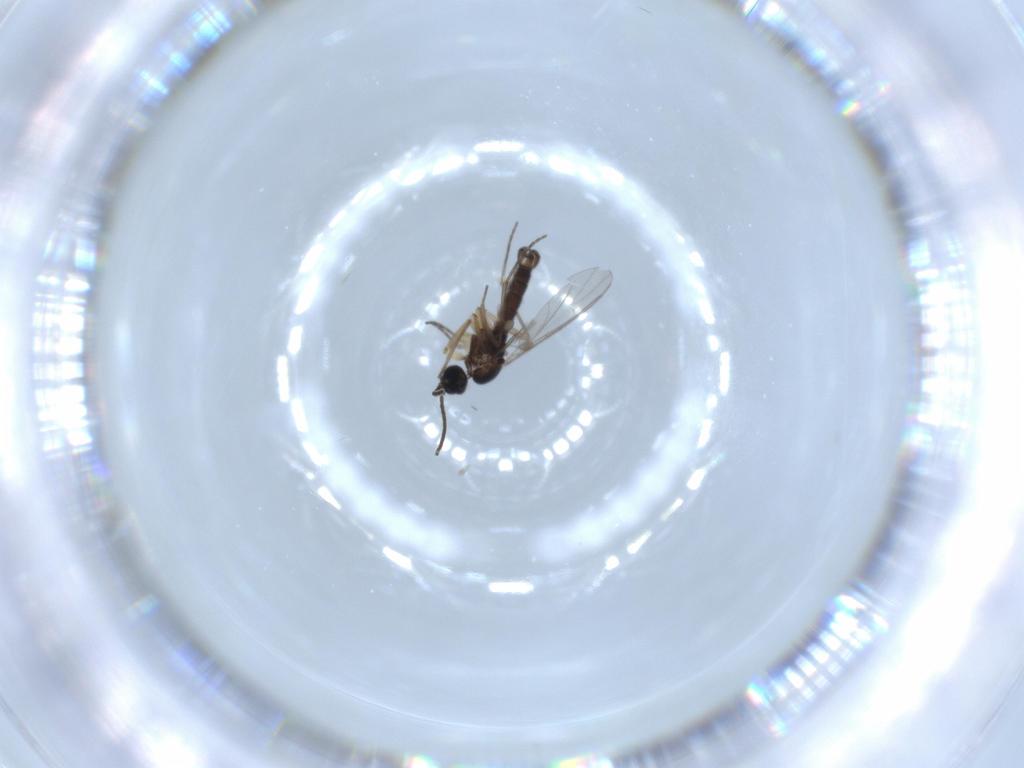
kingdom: Animalia
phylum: Arthropoda
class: Insecta
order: Diptera
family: Sciaridae
